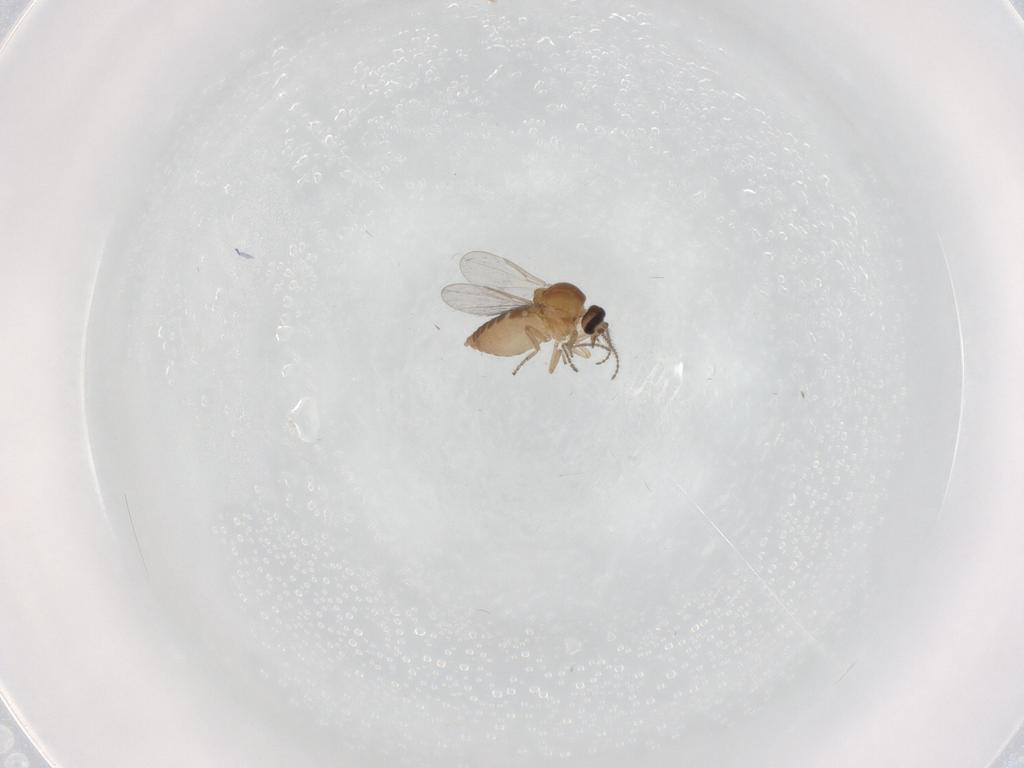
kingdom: Animalia
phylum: Arthropoda
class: Insecta
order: Diptera
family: Ceratopogonidae
